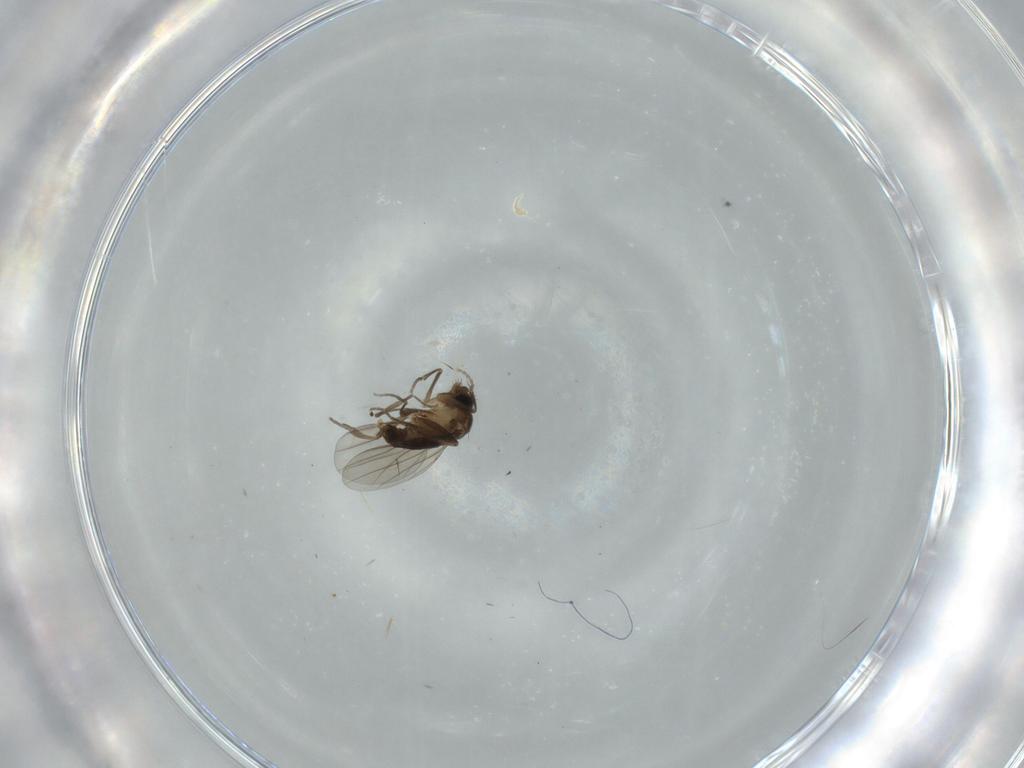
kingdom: Animalia
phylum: Arthropoda
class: Insecta
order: Diptera
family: Phoridae
